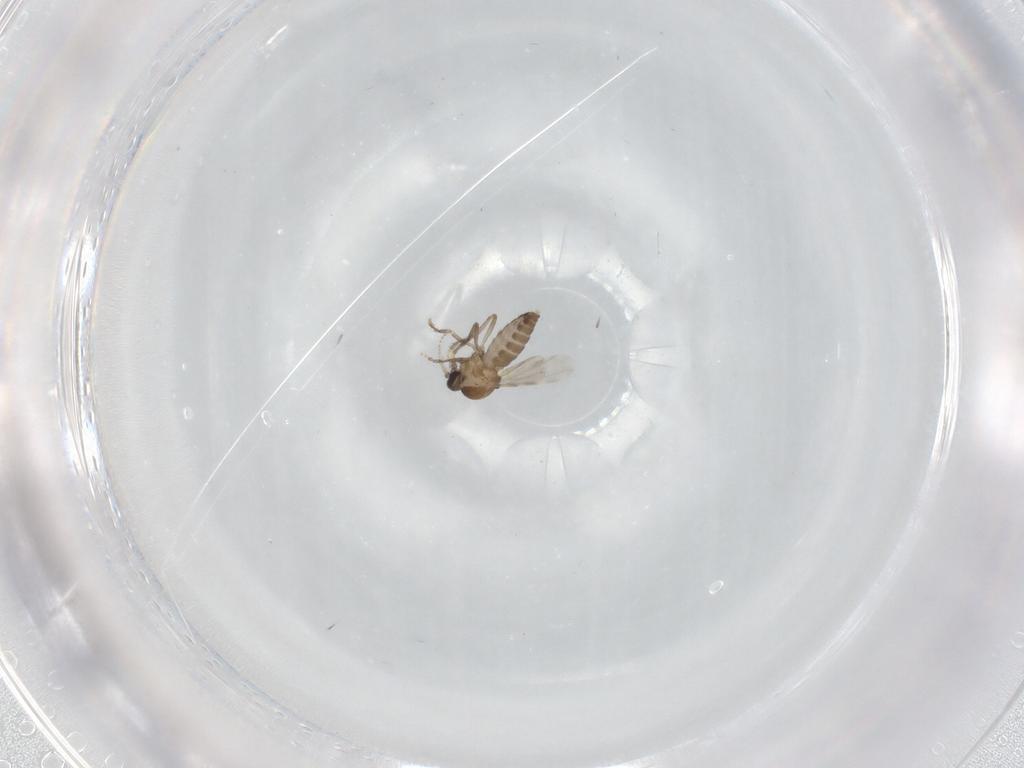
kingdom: Animalia
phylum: Arthropoda
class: Insecta
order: Diptera
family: Ceratopogonidae
